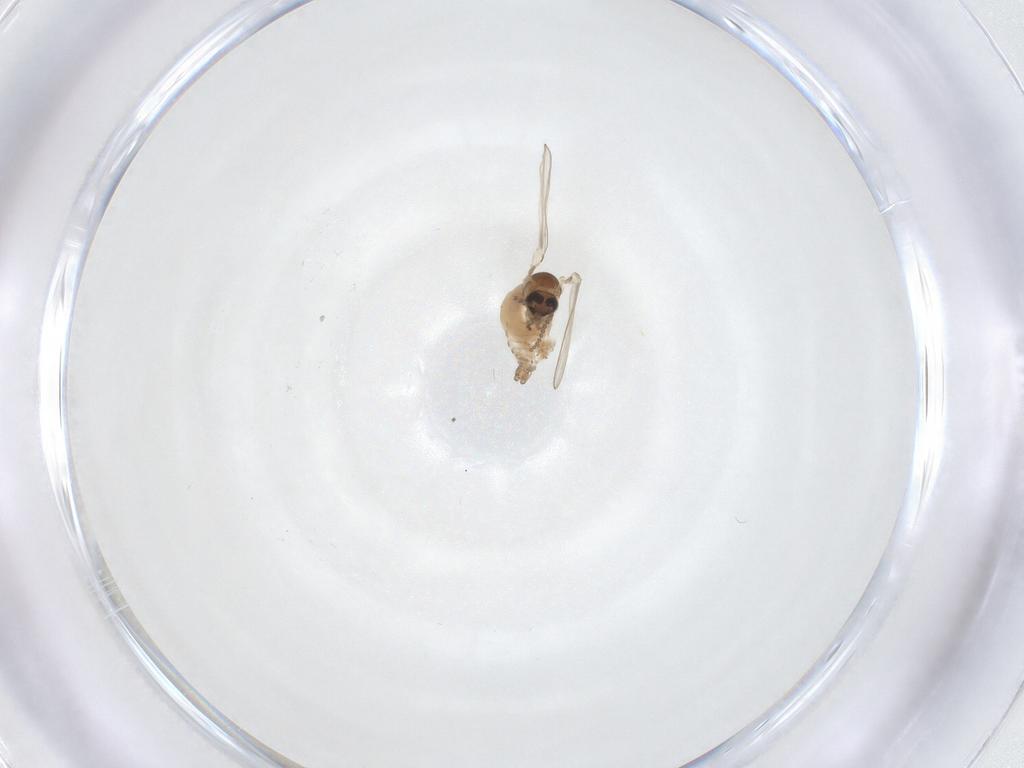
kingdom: Animalia
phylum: Arthropoda
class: Insecta
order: Diptera
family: Psychodidae
